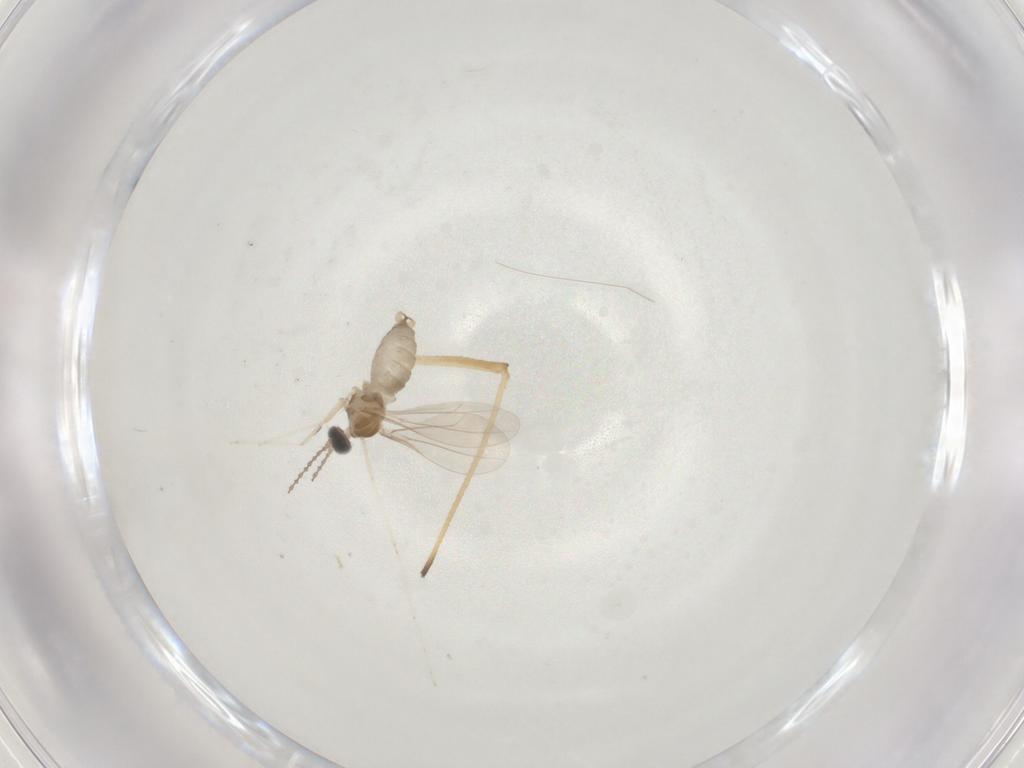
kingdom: Animalia
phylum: Arthropoda
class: Insecta
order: Diptera
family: Cecidomyiidae
